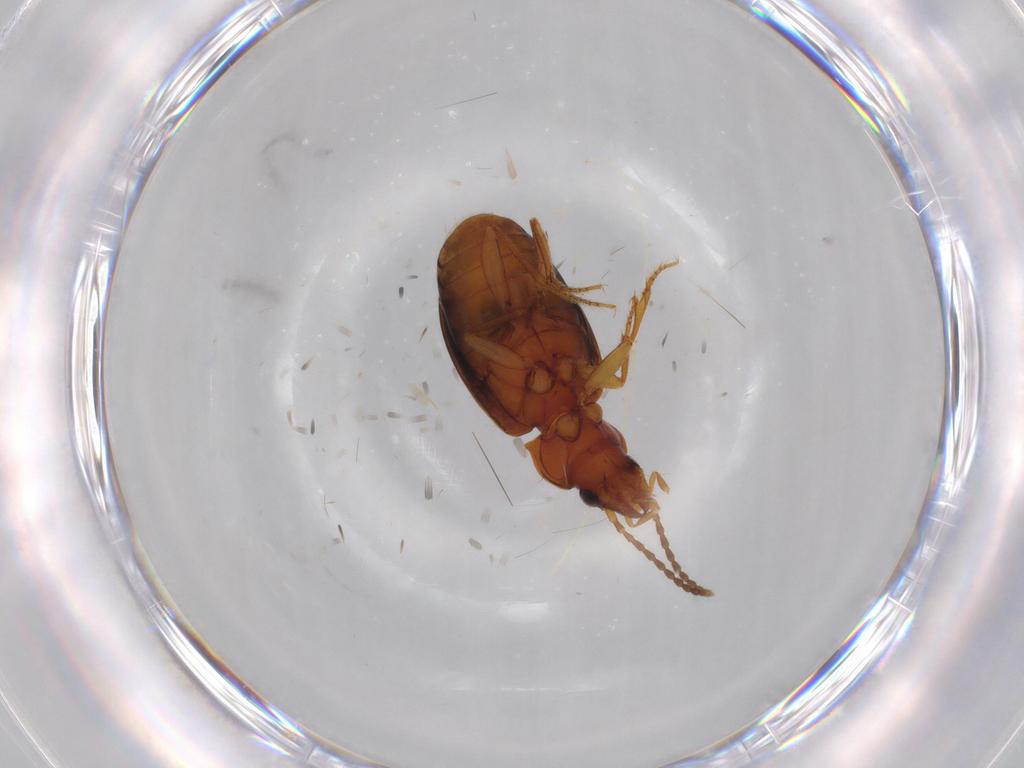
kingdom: Animalia
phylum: Arthropoda
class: Insecta
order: Coleoptera
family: Carabidae
